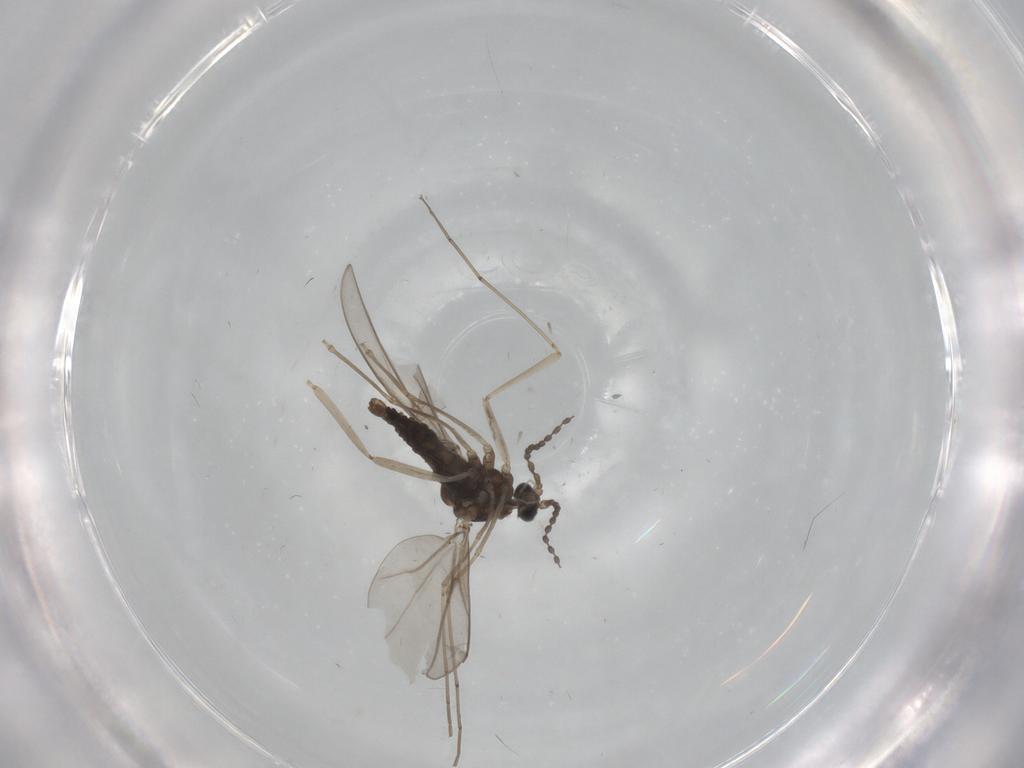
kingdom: Animalia
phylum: Arthropoda
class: Insecta
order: Diptera
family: Cecidomyiidae
